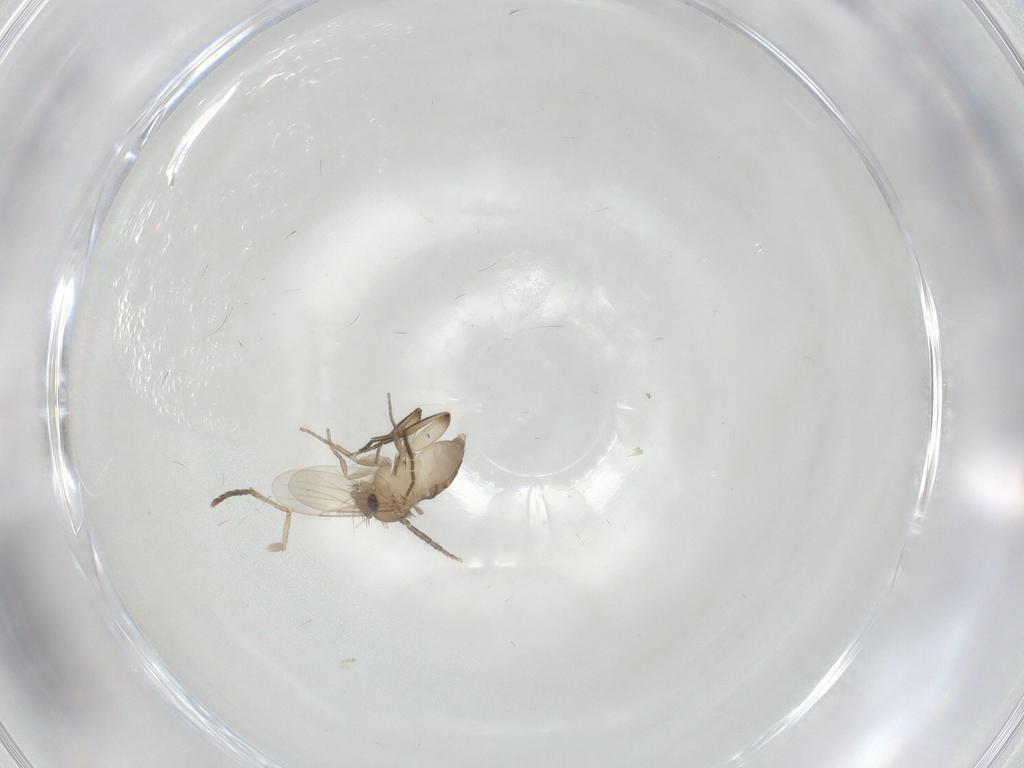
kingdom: Animalia
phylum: Arthropoda
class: Insecta
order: Diptera
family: Phoridae
